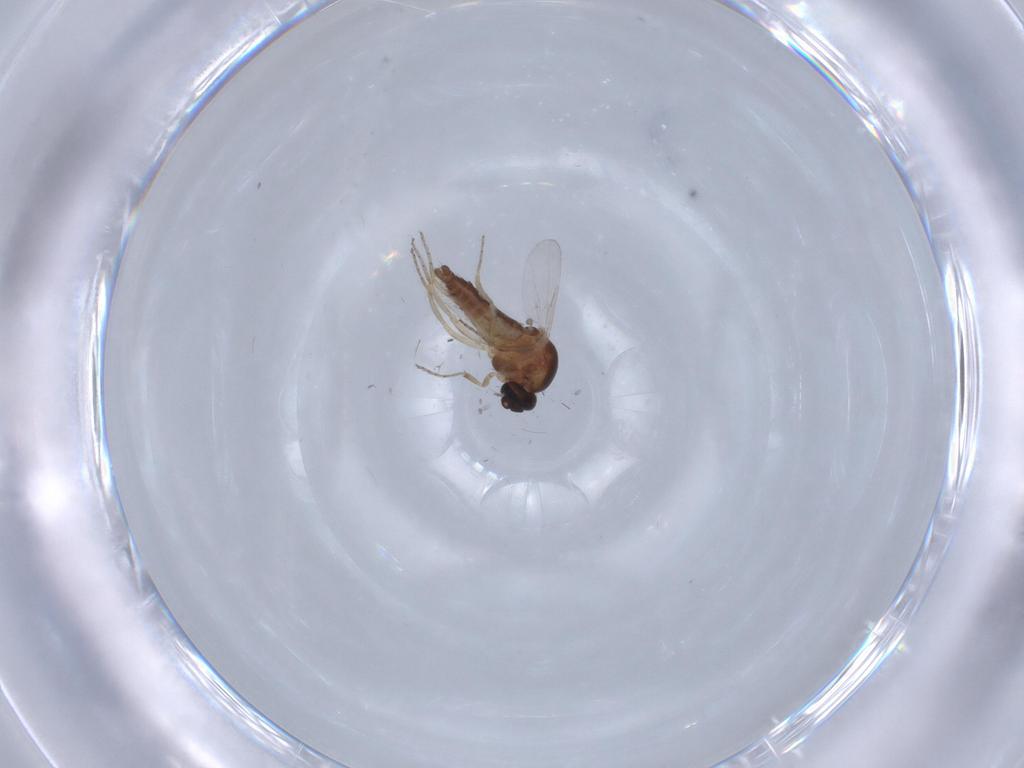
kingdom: Animalia
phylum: Arthropoda
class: Insecta
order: Diptera
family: Ceratopogonidae
